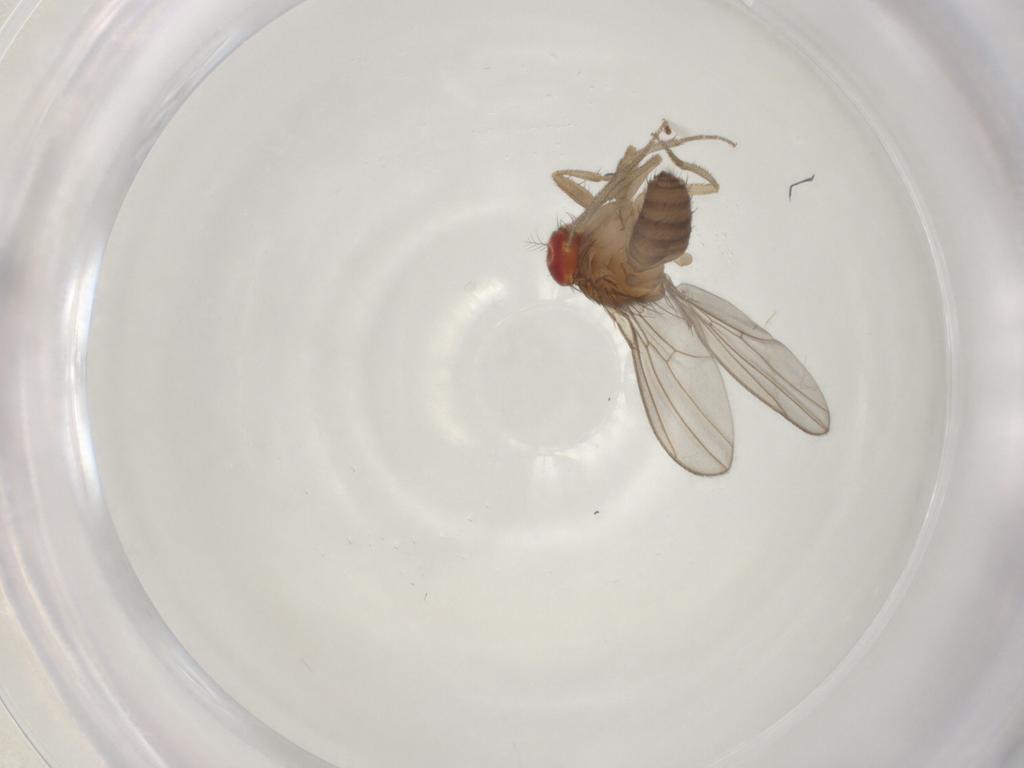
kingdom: Animalia
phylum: Arthropoda
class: Insecta
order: Diptera
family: Drosophilidae
